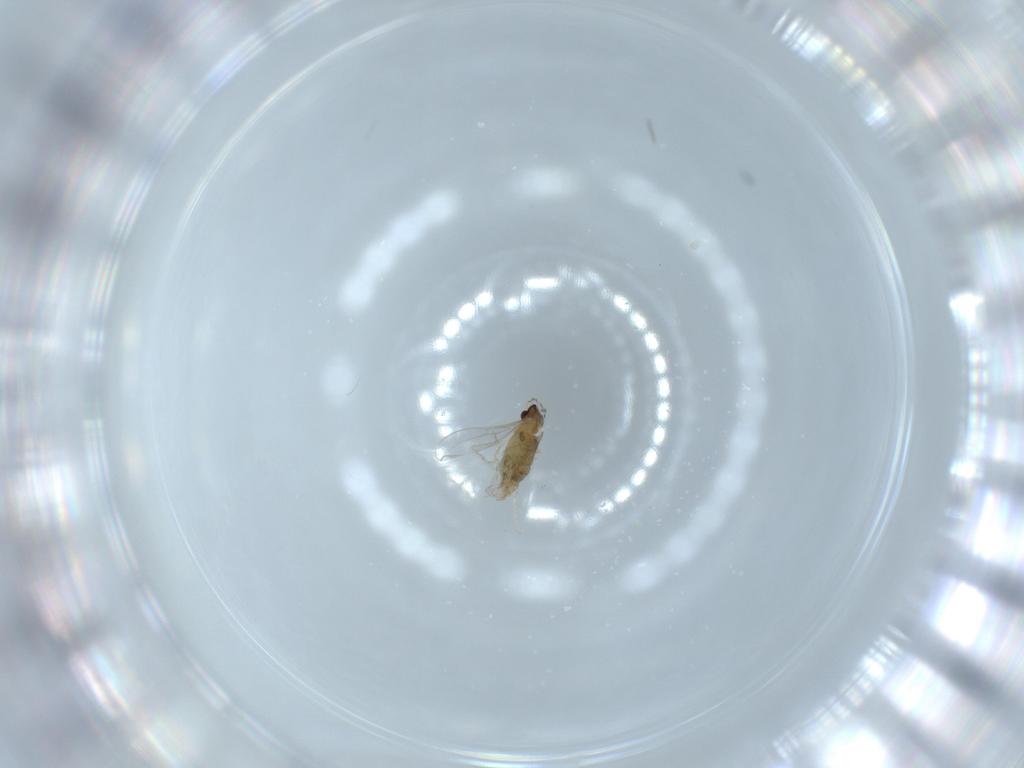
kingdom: Animalia
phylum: Arthropoda
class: Insecta
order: Diptera
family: Cecidomyiidae
